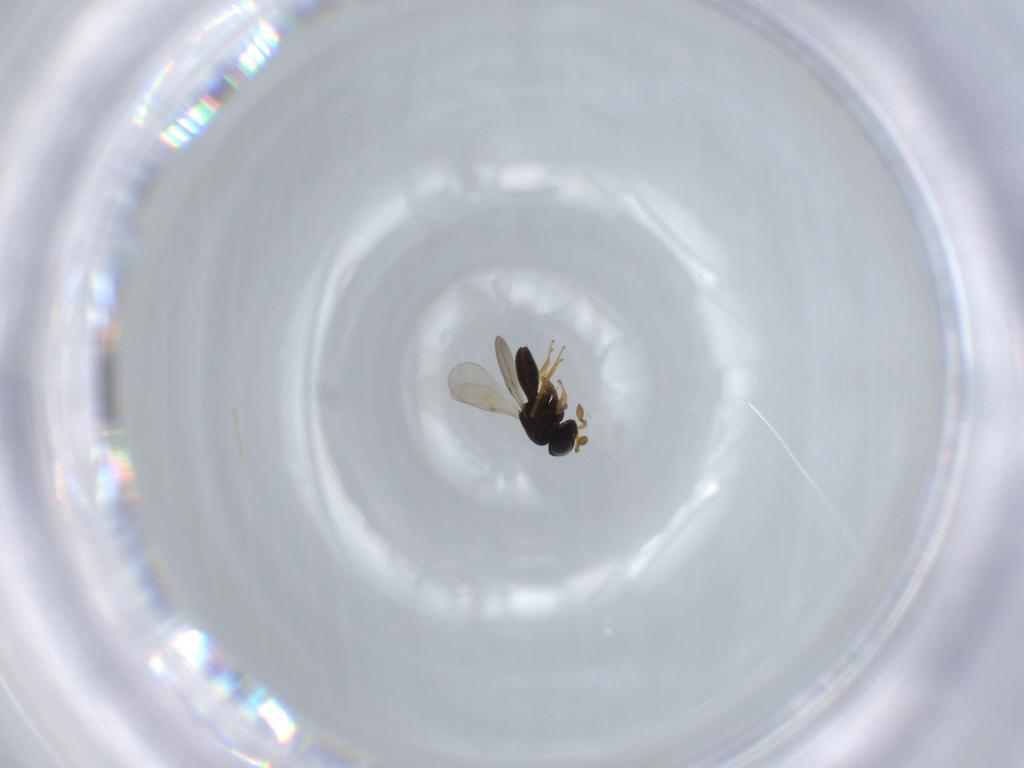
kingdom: Animalia
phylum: Arthropoda
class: Insecta
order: Hymenoptera
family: Scelionidae
